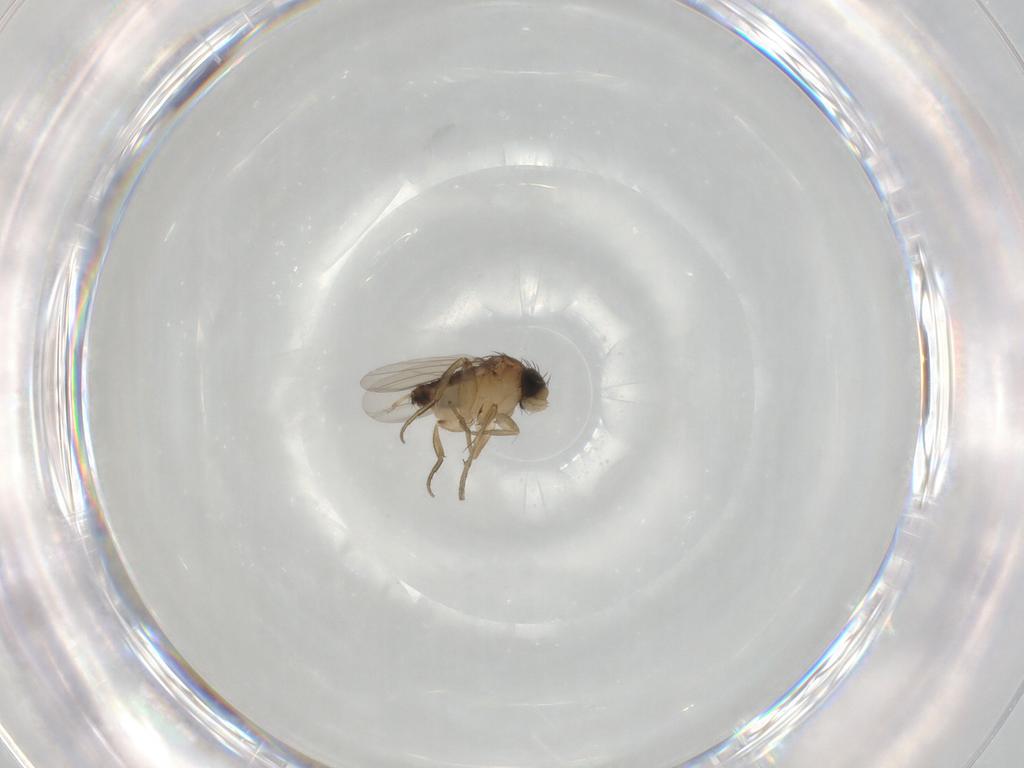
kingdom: Animalia
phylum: Arthropoda
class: Insecta
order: Diptera
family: Phoridae
